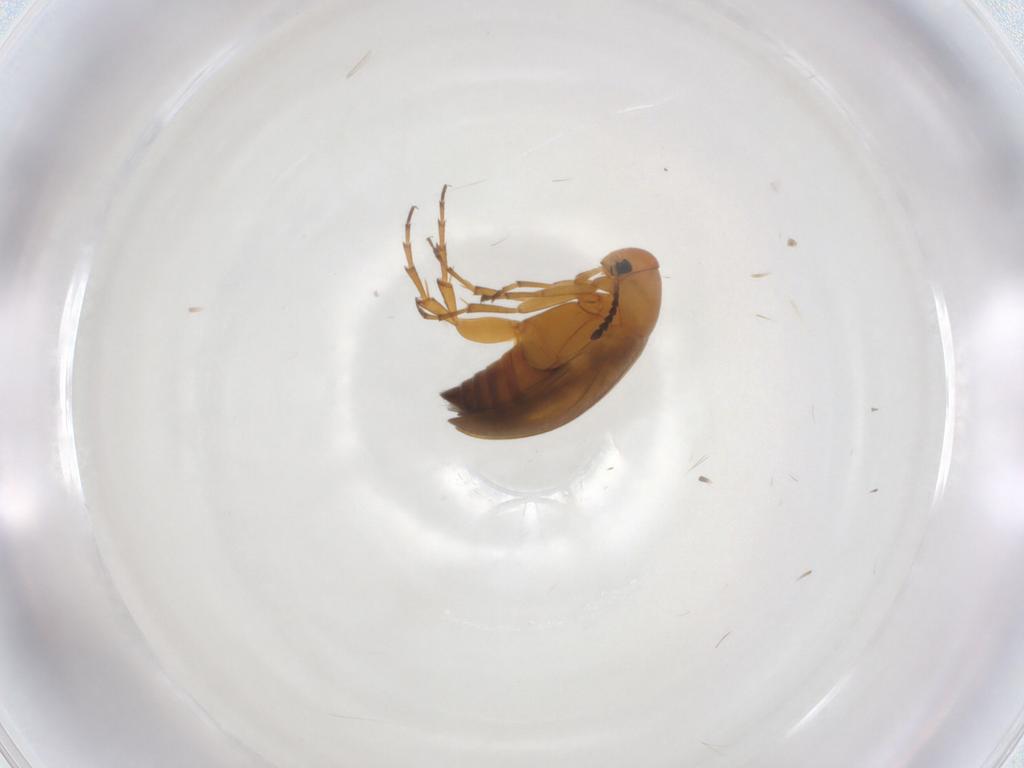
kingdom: Animalia
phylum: Arthropoda
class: Insecta
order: Coleoptera
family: Scraptiidae
